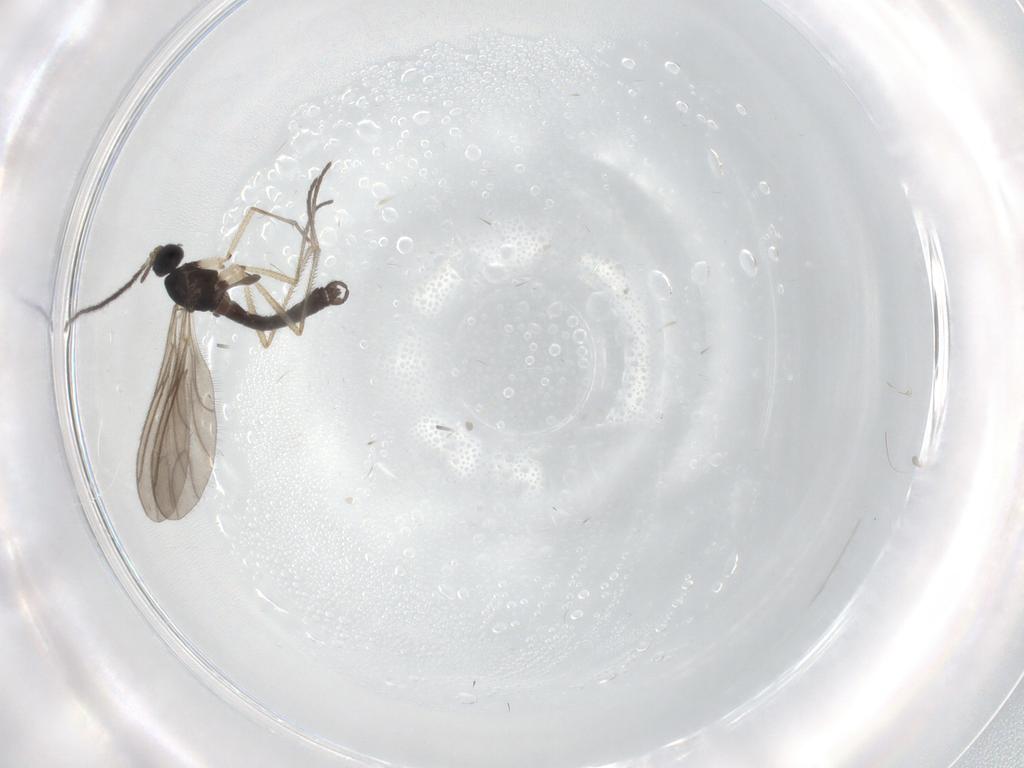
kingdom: Animalia
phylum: Arthropoda
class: Insecta
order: Diptera
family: Sciaridae
